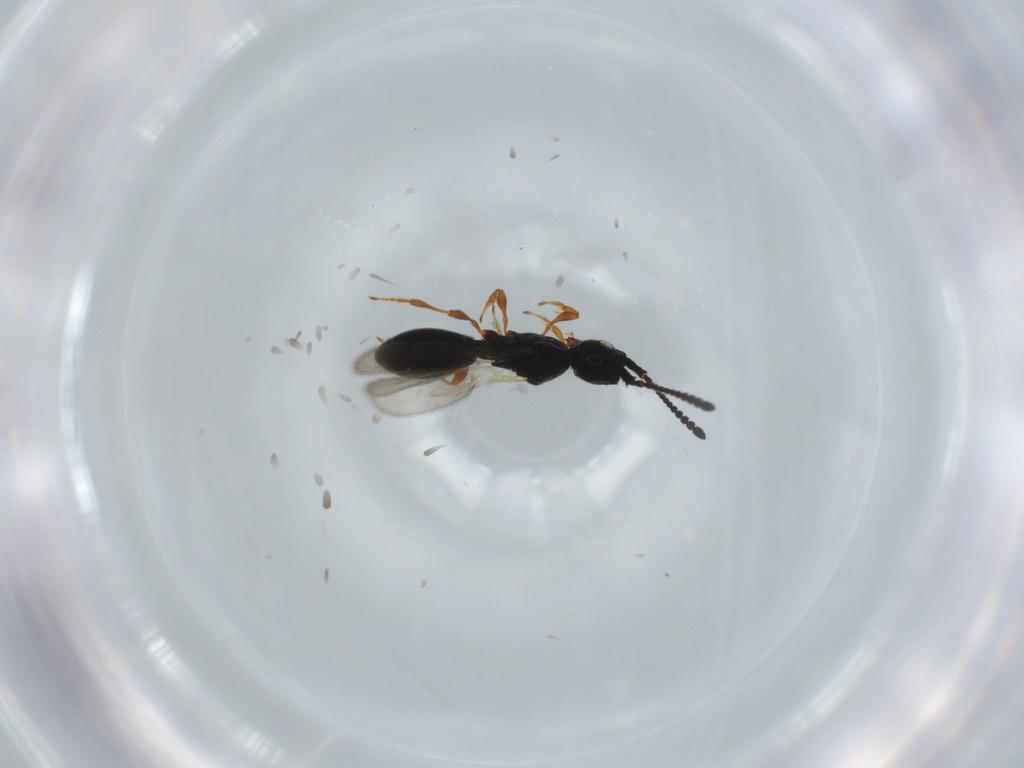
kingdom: Animalia
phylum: Arthropoda
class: Insecta
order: Hymenoptera
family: Diapriidae
